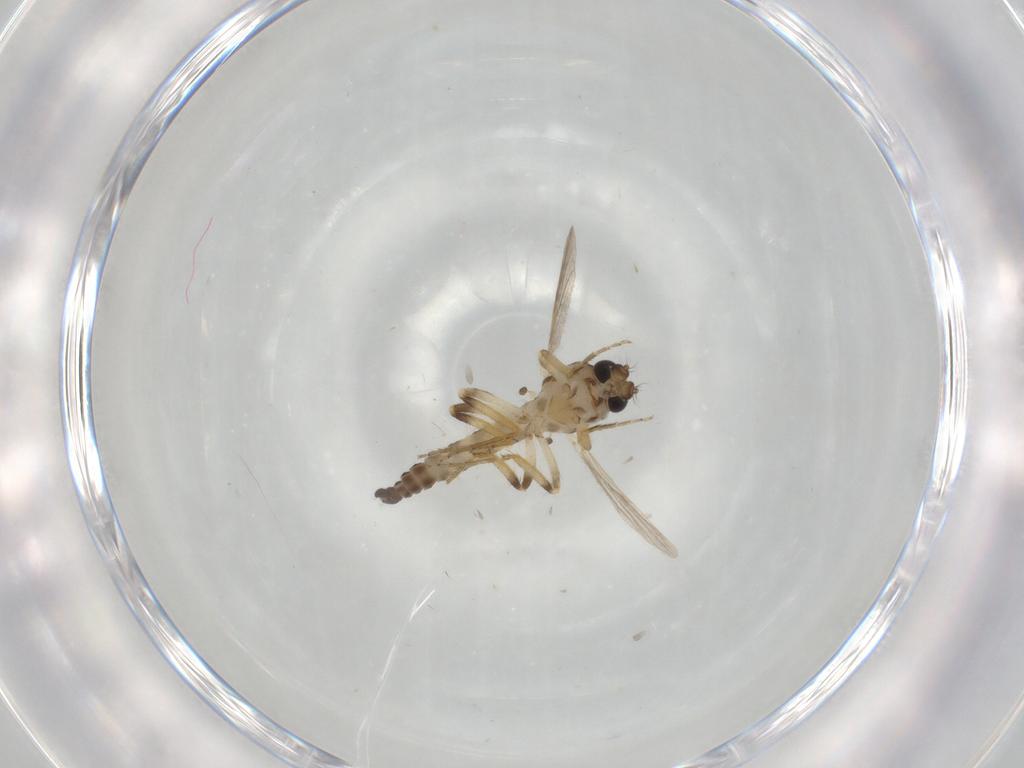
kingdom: Animalia
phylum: Arthropoda
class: Insecta
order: Diptera
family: Ceratopogonidae
